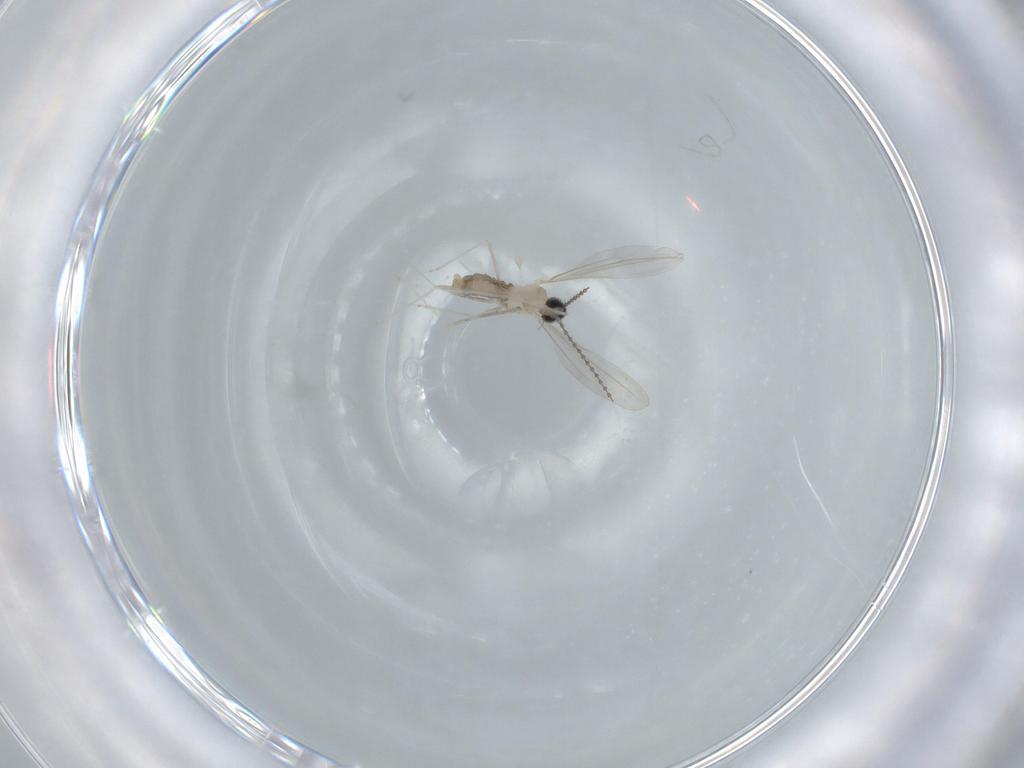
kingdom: Animalia
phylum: Arthropoda
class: Insecta
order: Diptera
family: Cecidomyiidae
